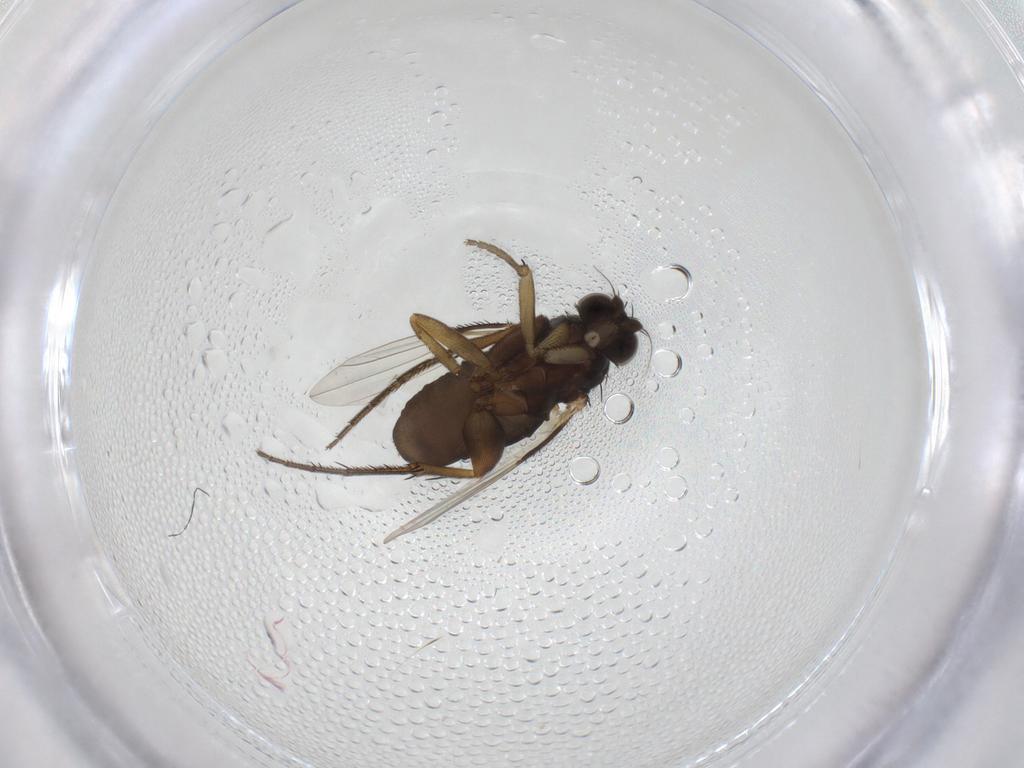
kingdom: Animalia
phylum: Arthropoda
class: Insecta
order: Diptera
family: Phoridae
